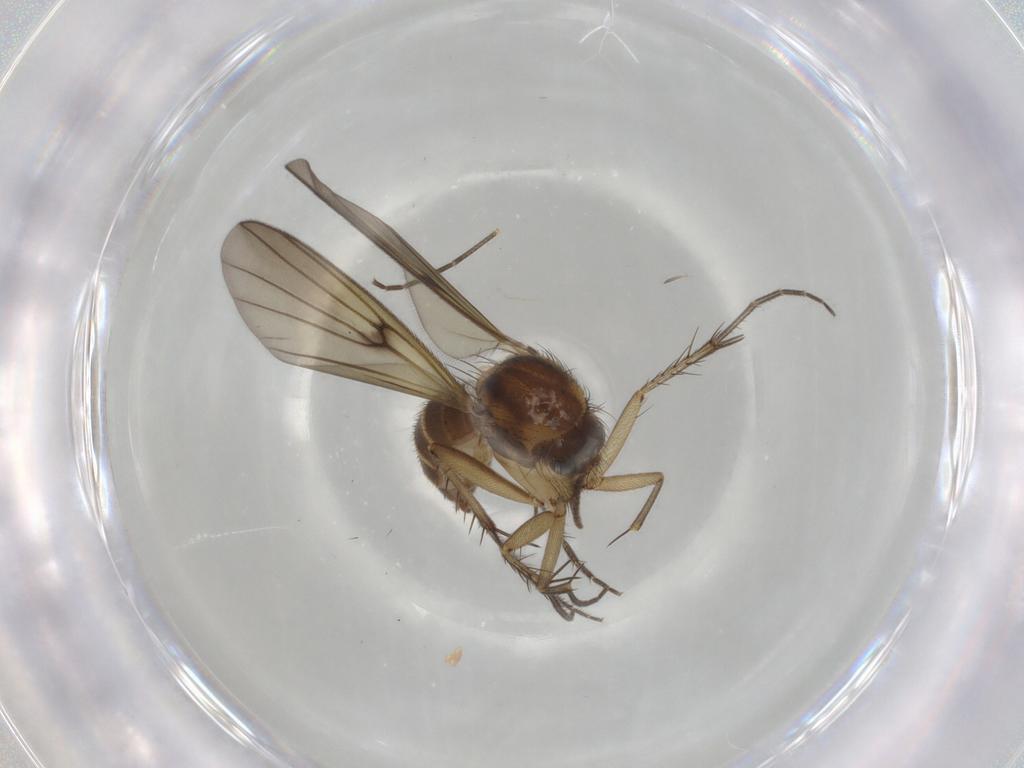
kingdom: Animalia
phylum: Arthropoda
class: Insecta
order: Diptera
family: Mycetophilidae
